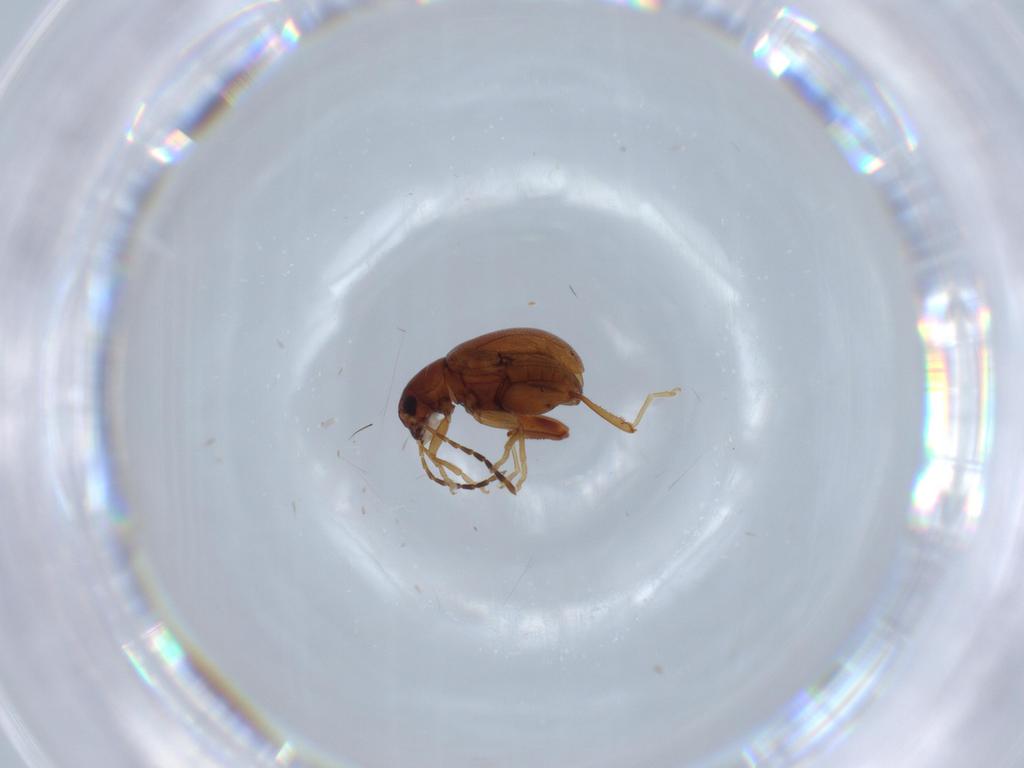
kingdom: Animalia
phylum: Arthropoda
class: Insecta
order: Coleoptera
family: Chrysomelidae
